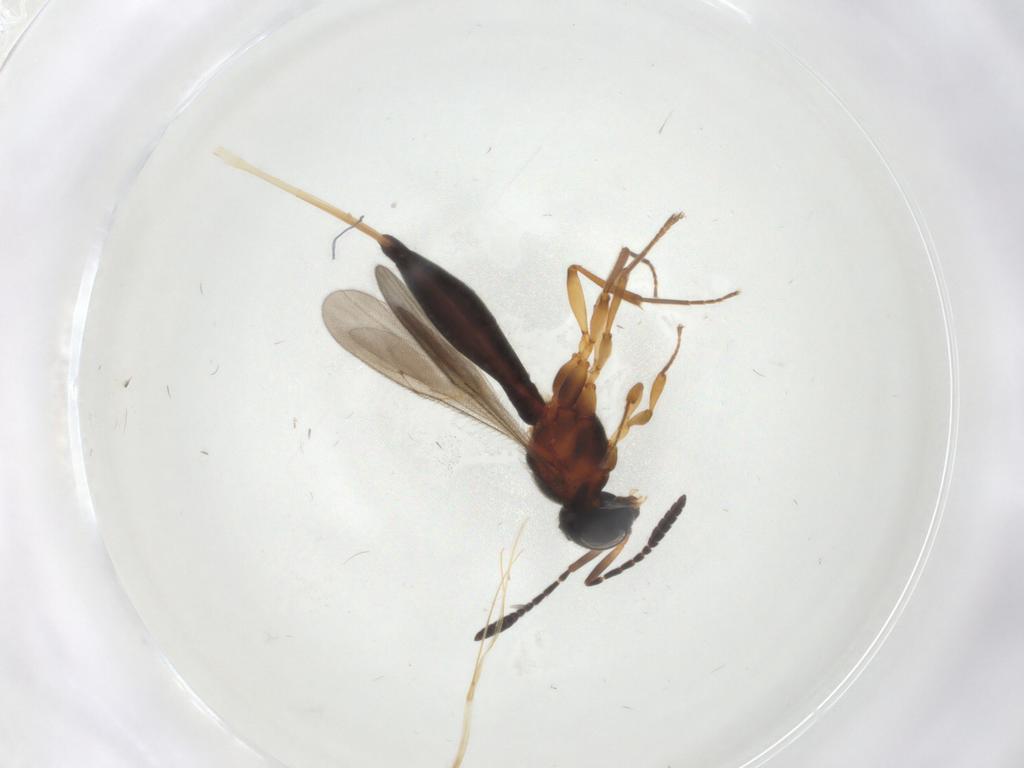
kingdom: Animalia
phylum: Arthropoda
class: Insecta
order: Hymenoptera
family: Scelionidae
